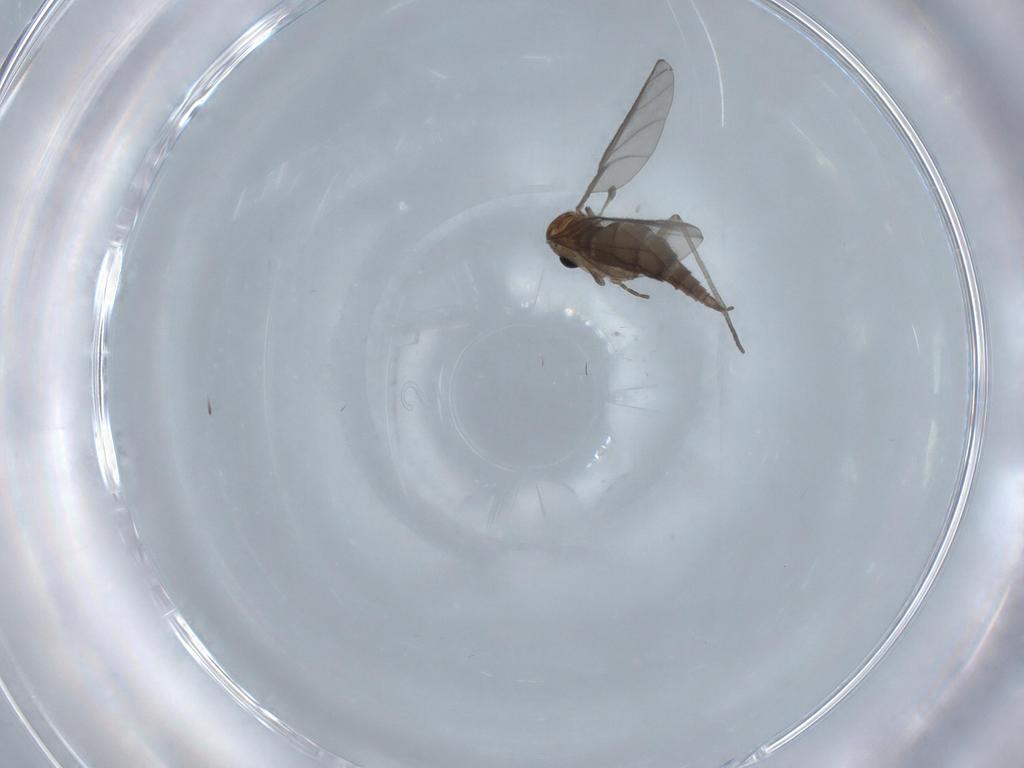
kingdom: Animalia
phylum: Arthropoda
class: Insecta
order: Diptera
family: Sciaridae
